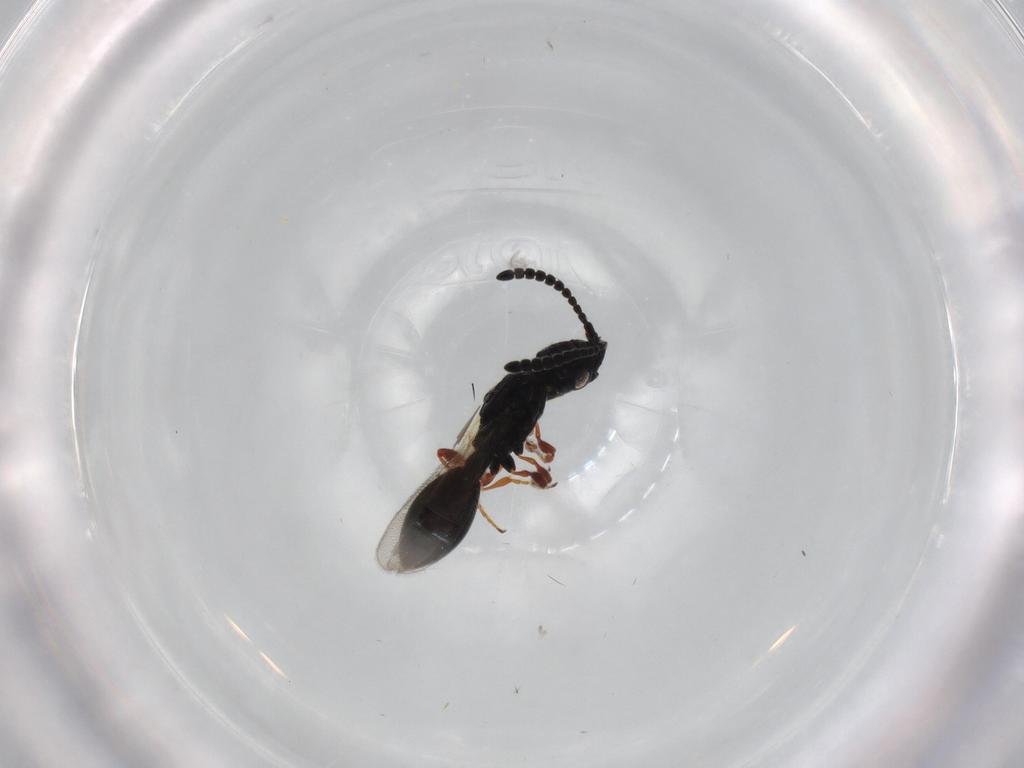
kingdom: Animalia
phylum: Arthropoda
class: Insecta
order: Hymenoptera
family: Diapriidae
